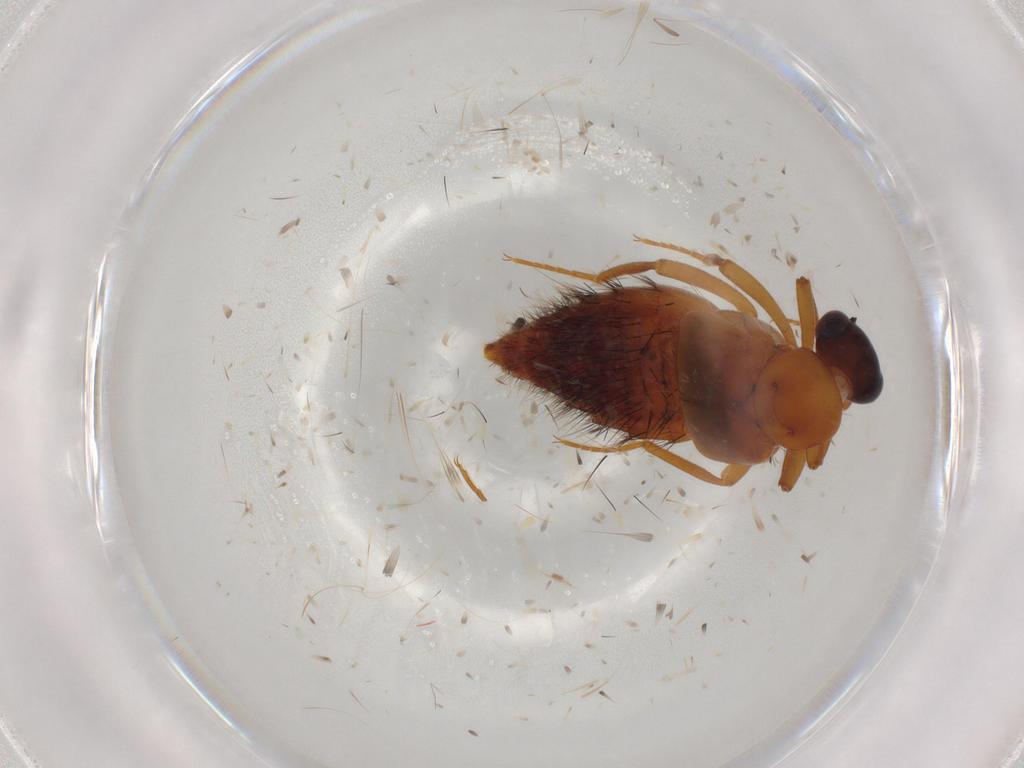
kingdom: Animalia
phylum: Arthropoda
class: Insecta
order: Coleoptera
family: Staphylinidae
